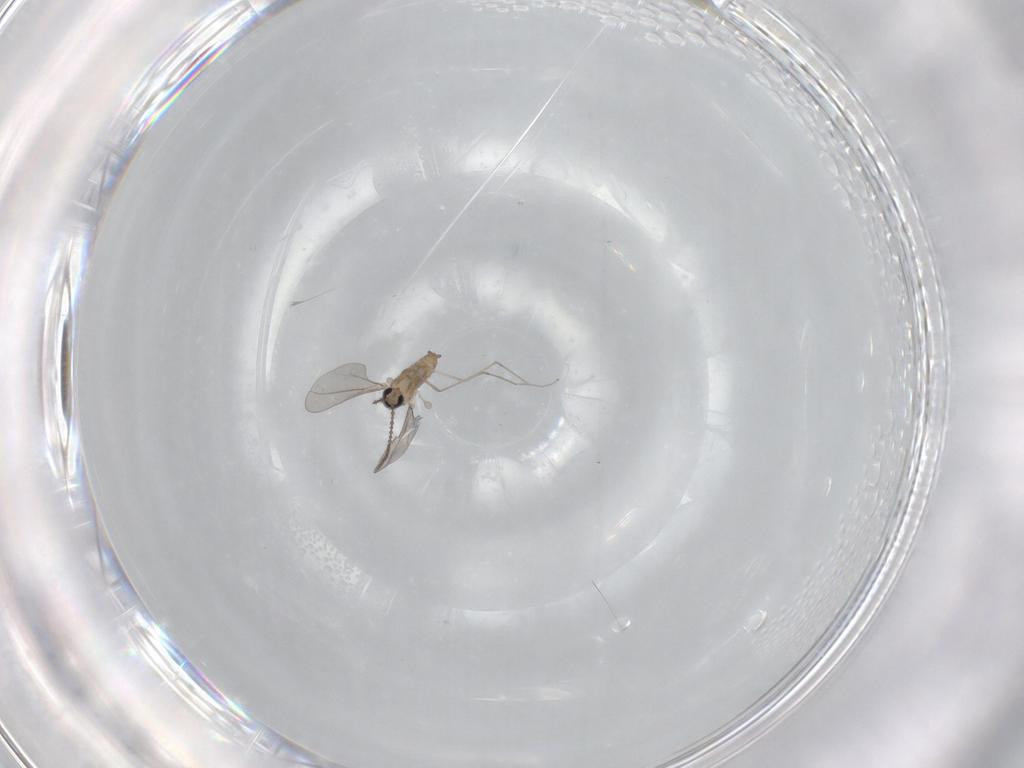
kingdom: Animalia
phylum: Arthropoda
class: Insecta
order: Diptera
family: Cecidomyiidae
